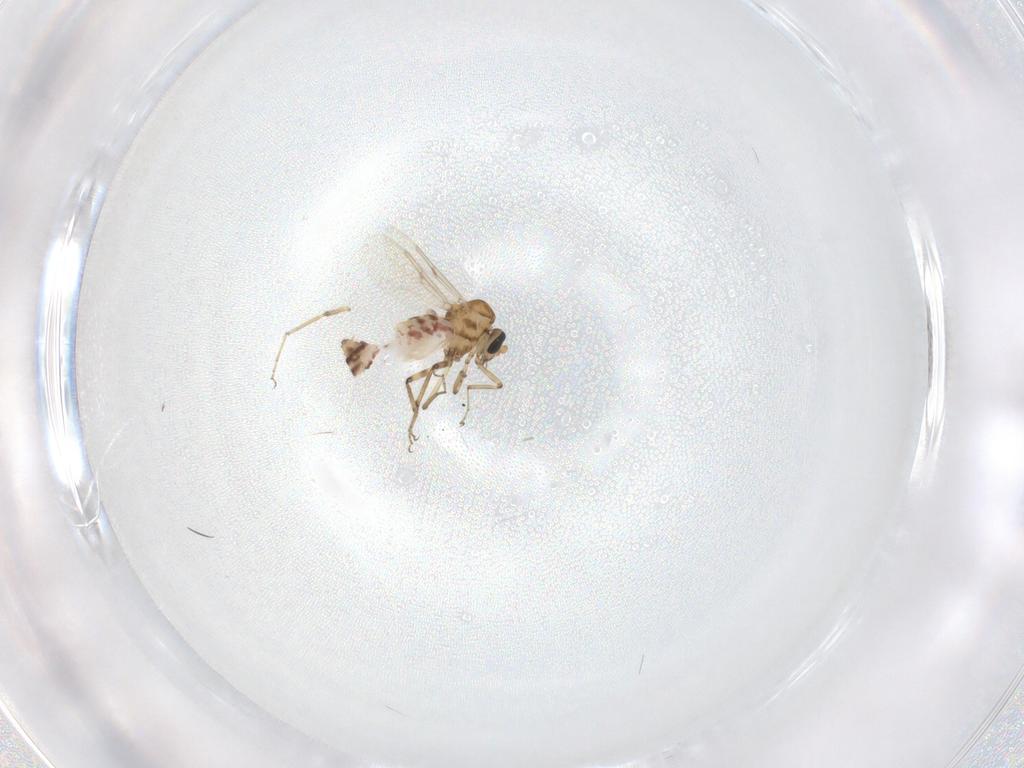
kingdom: Animalia
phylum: Arthropoda
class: Insecta
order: Diptera
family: Ceratopogonidae
